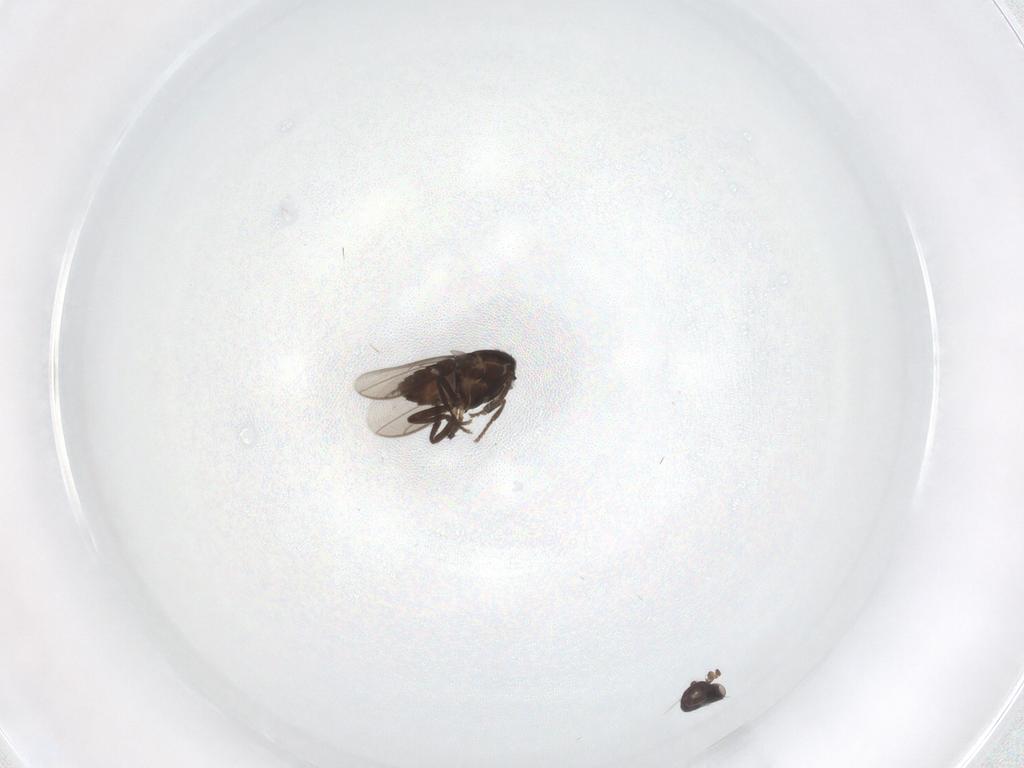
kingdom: Animalia
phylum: Arthropoda
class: Insecta
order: Diptera
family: Sphaeroceridae
